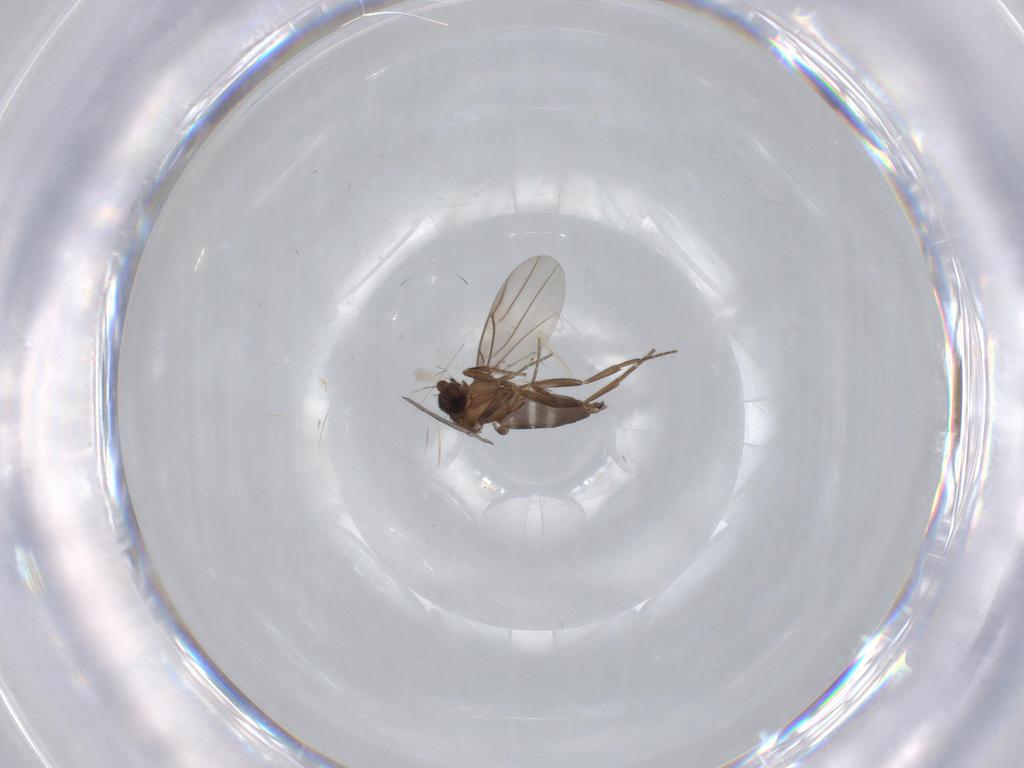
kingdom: Animalia
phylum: Arthropoda
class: Insecta
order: Diptera
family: Chironomidae
